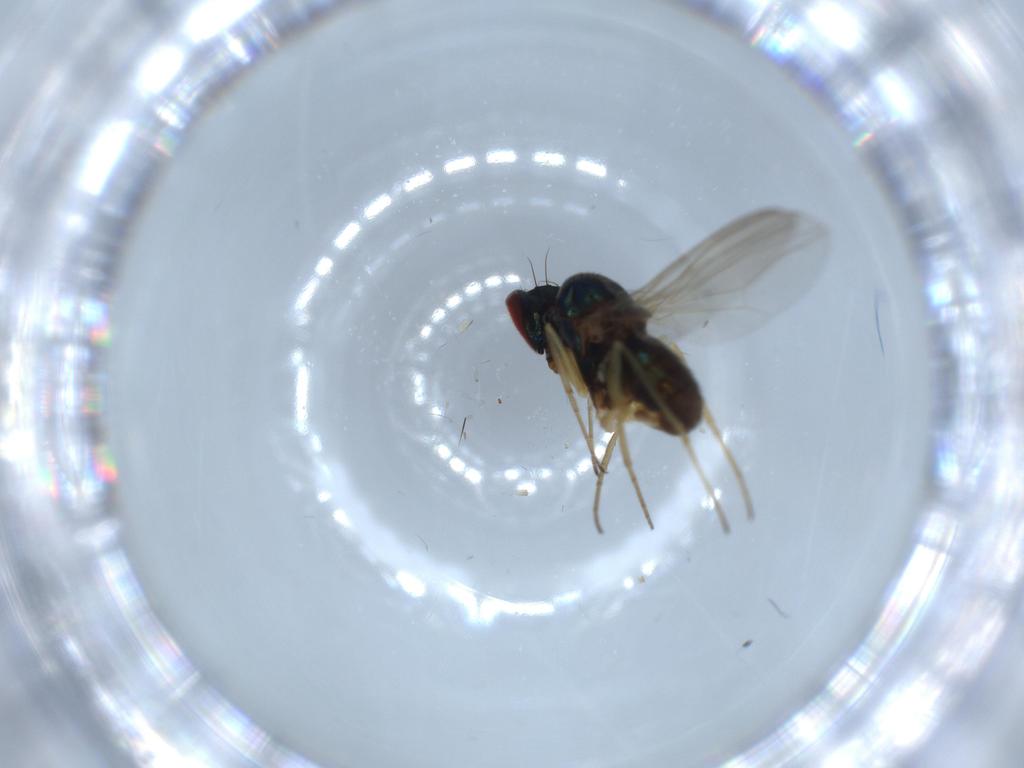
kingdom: Animalia
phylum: Arthropoda
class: Insecta
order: Diptera
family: Dolichopodidae
